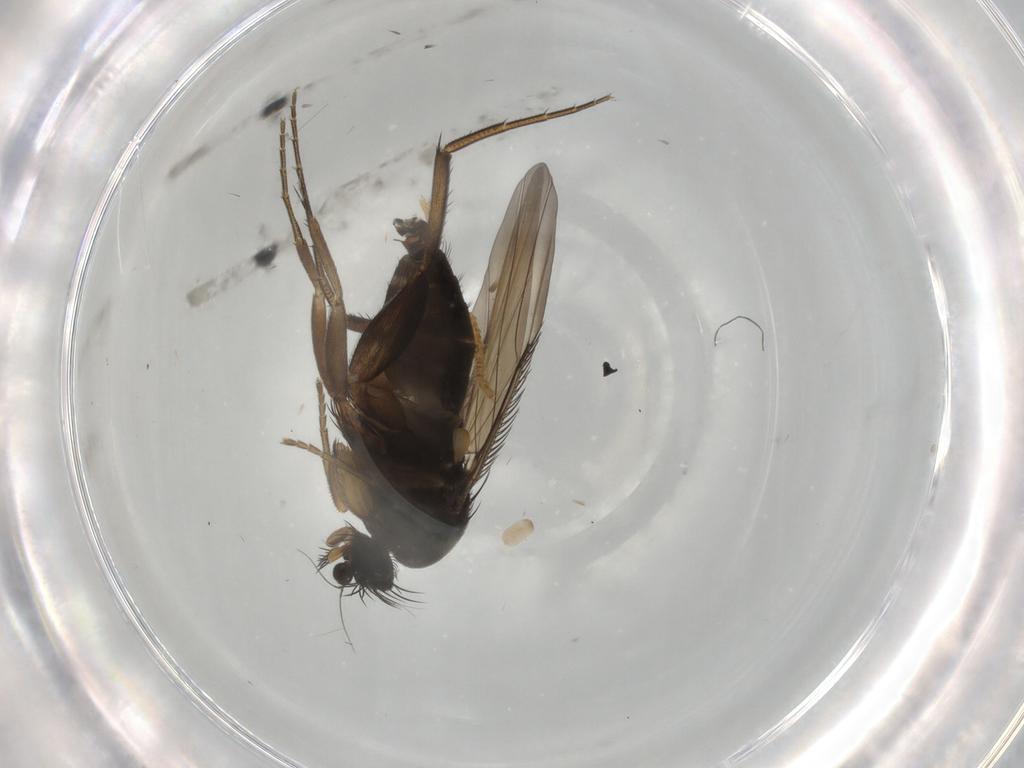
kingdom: Animalia
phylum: Arthropoda
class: Insecta
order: Diptera
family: Phoridae
